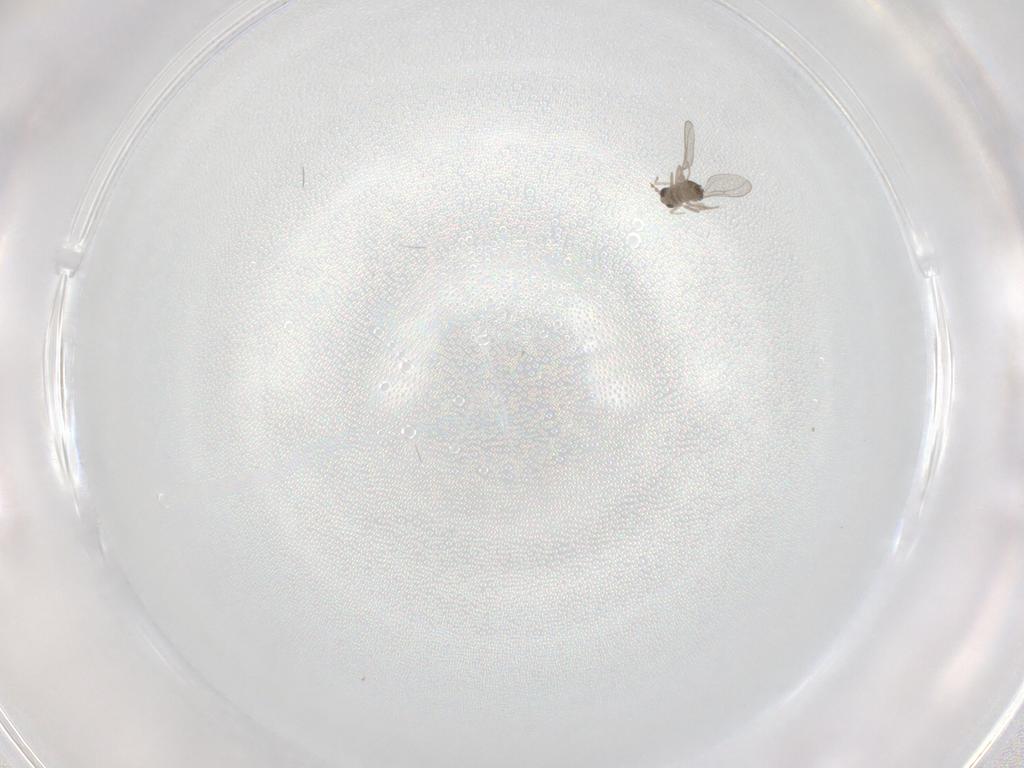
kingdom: Animalia
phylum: Arthropoda
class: Insecta
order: Diptera
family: Cecidomyiidae
